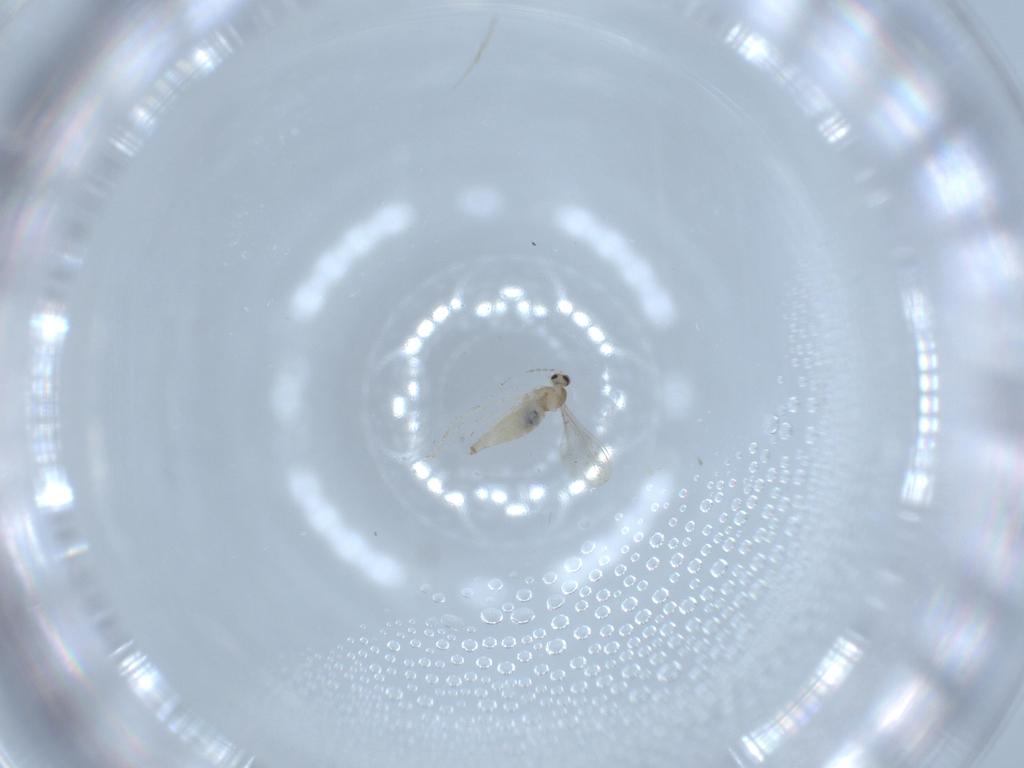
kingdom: Animalia
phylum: Arthropoda
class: Insecta
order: Diptera
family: Cecidomyiidae
